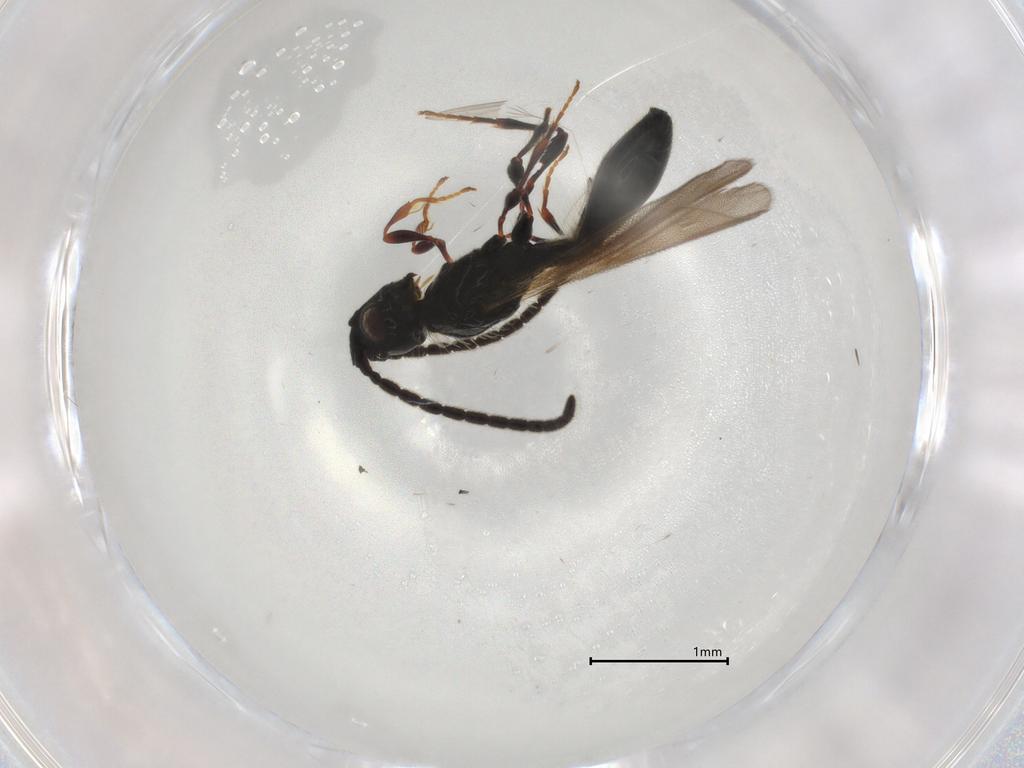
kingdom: Animalia
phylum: Arthropoda
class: Insecta
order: Hymenoptera
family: Diapriidae
